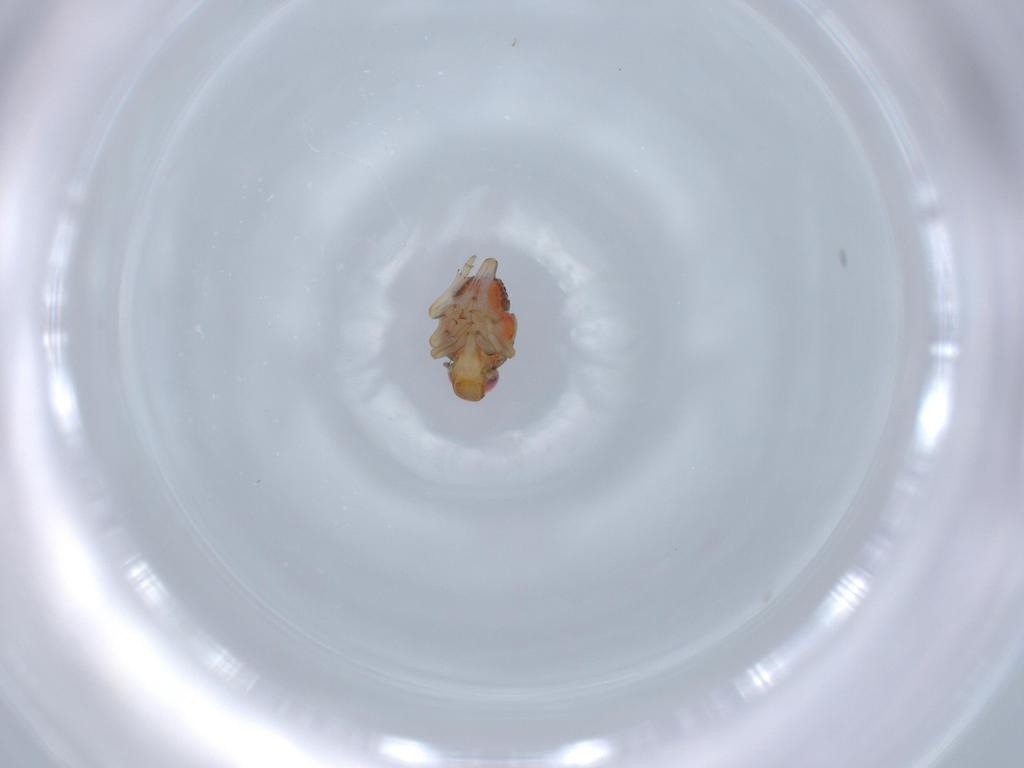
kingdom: Animalia
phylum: Arthropoda
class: Insecta
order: Hemiptera
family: Issidae
